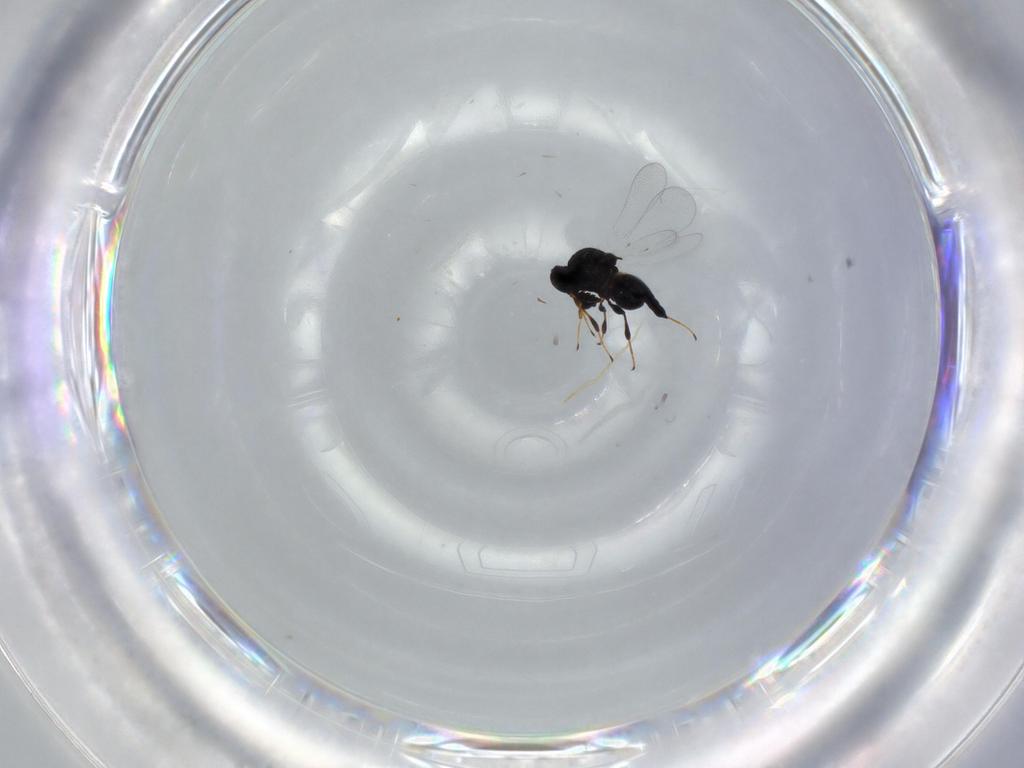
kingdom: Animalia
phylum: Arthropoda
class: Insecta
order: Hymenoptera
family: Platygastridae
